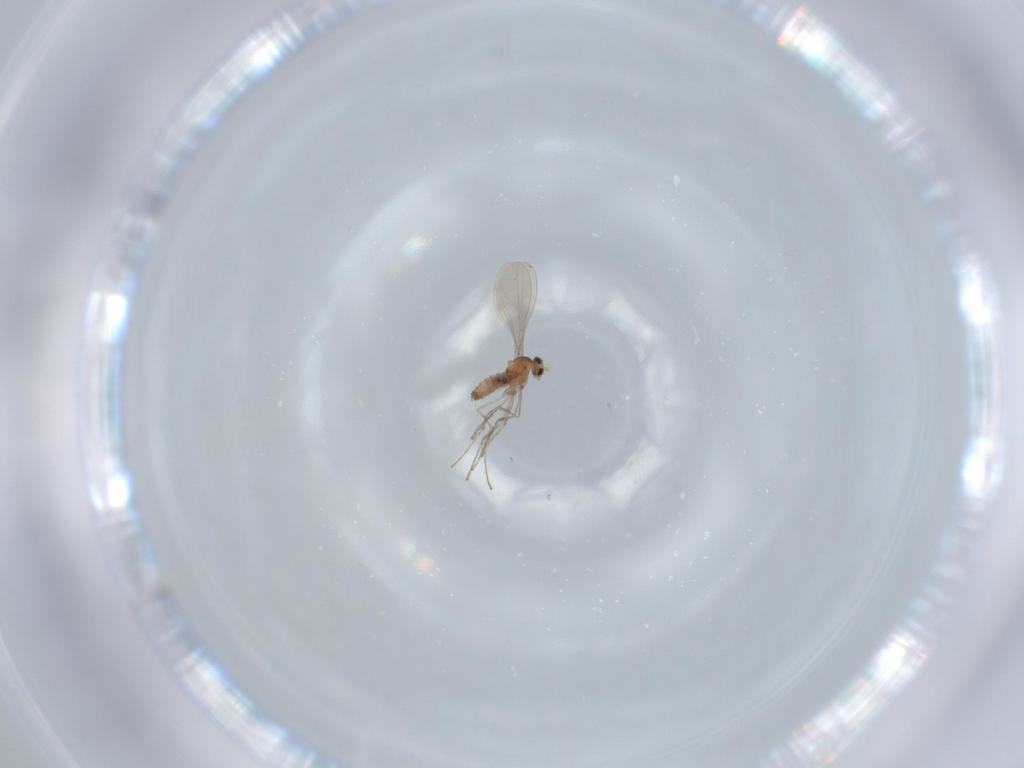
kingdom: Animalia
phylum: Arthropoda
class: Insecta
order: Diptera
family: Cecidomyiidae
